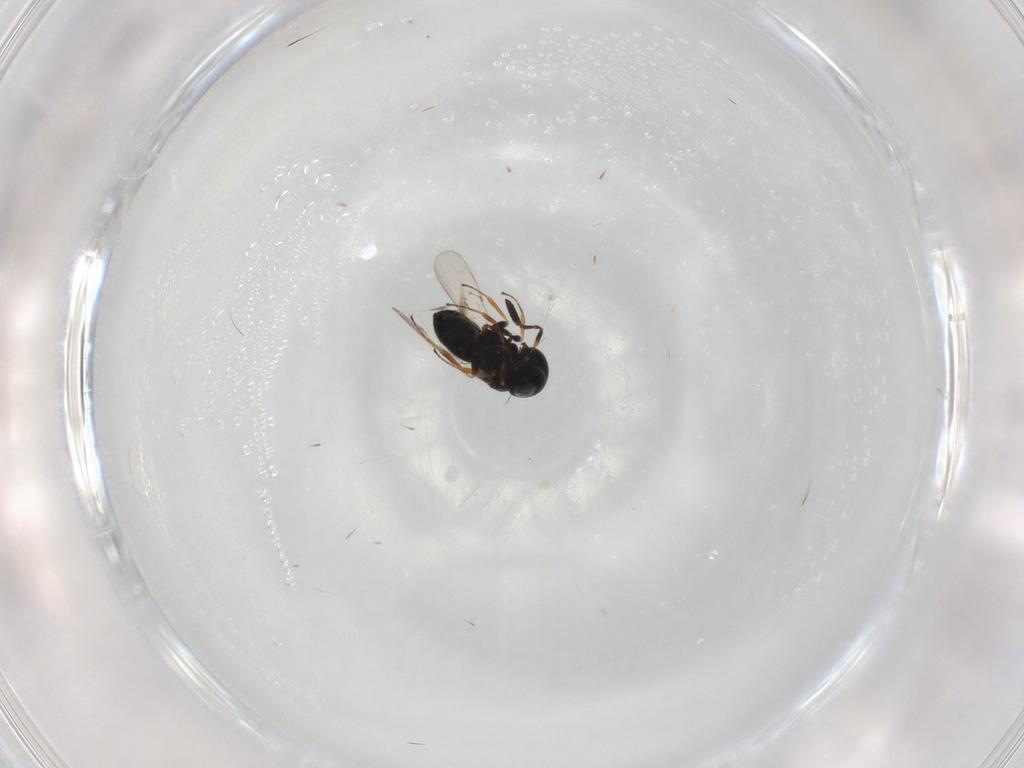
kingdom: Animalia
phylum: Arthropoda
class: Insecta
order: Coleoptera
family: Curculionidae
